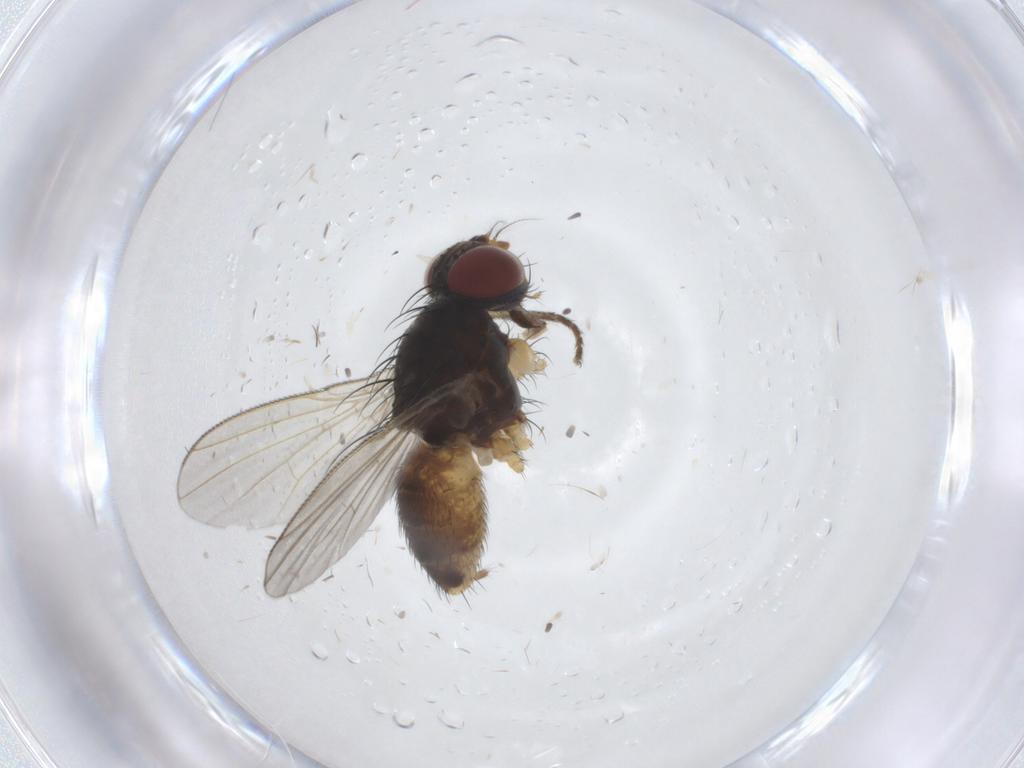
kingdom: Animalia
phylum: Arthropoda
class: Insecta
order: Diptera
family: Muscidae
